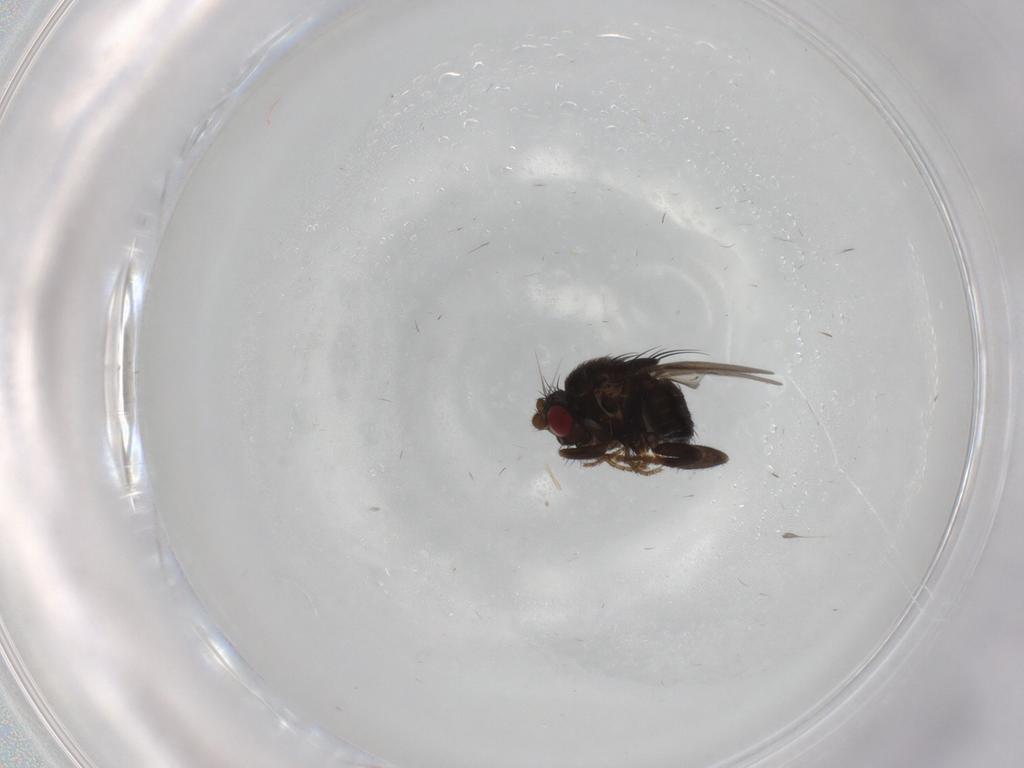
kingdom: Animalia
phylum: Arthropoda
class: Insecta
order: Diptera
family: Sphaeroceridae
